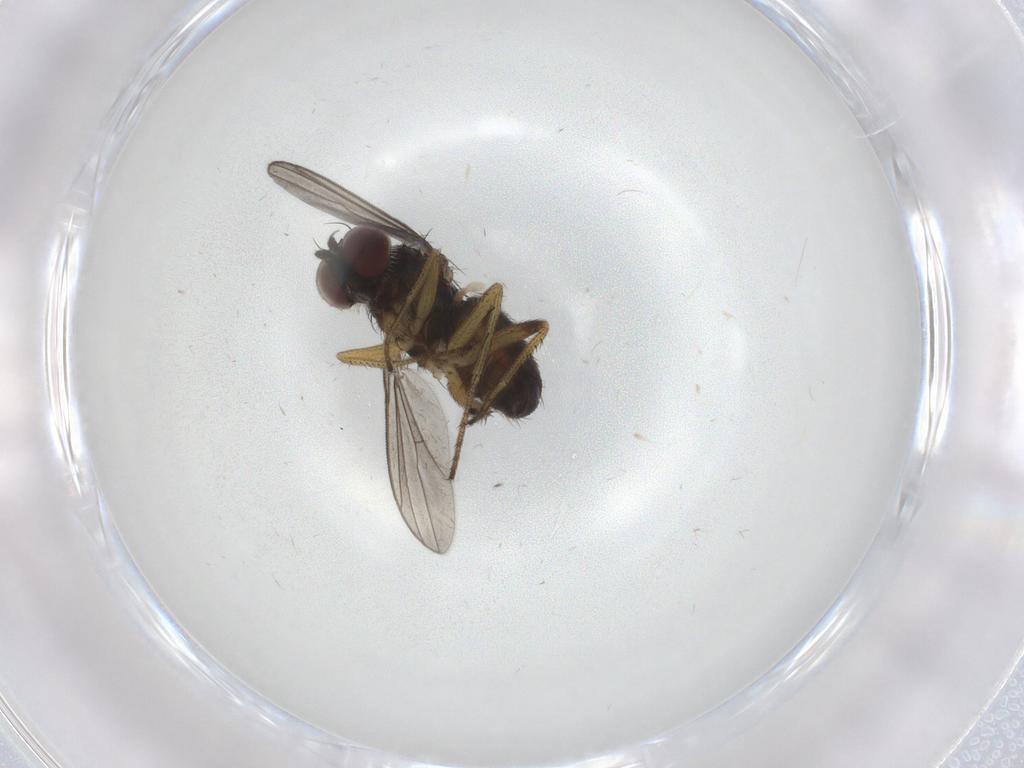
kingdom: Animalia
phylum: Arthropoda
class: Insecta
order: Diptera
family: Dolichopodidae
